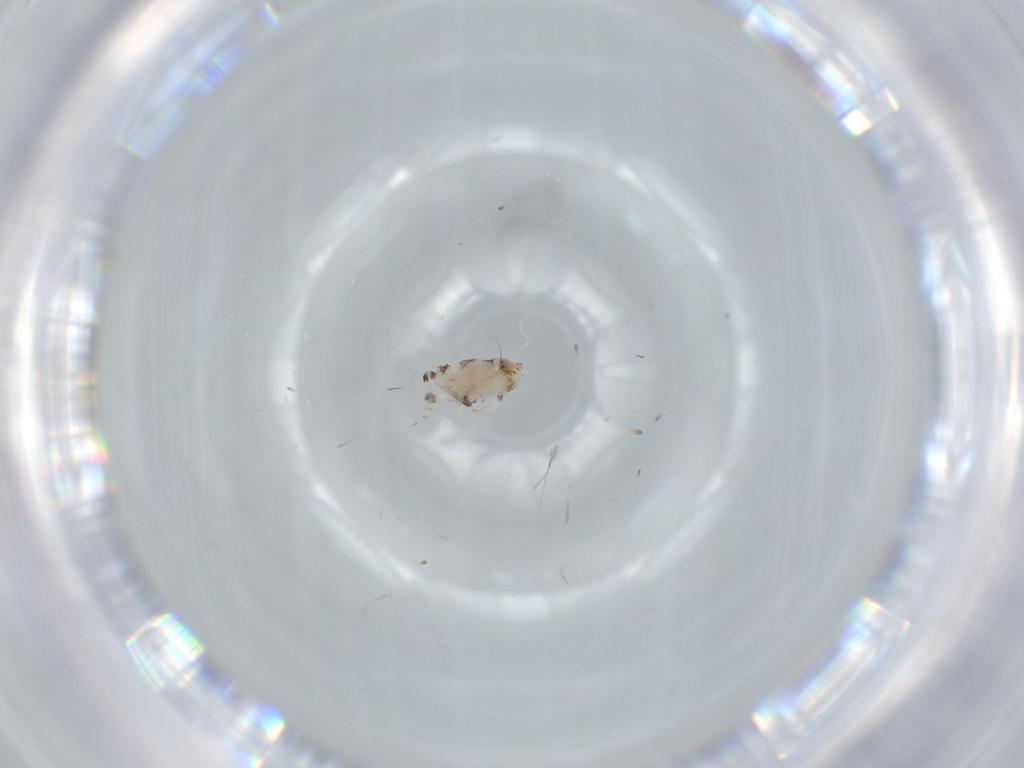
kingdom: Animalia
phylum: Arthropoda
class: Insecta
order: Hemiptera
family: Nogodinidae
